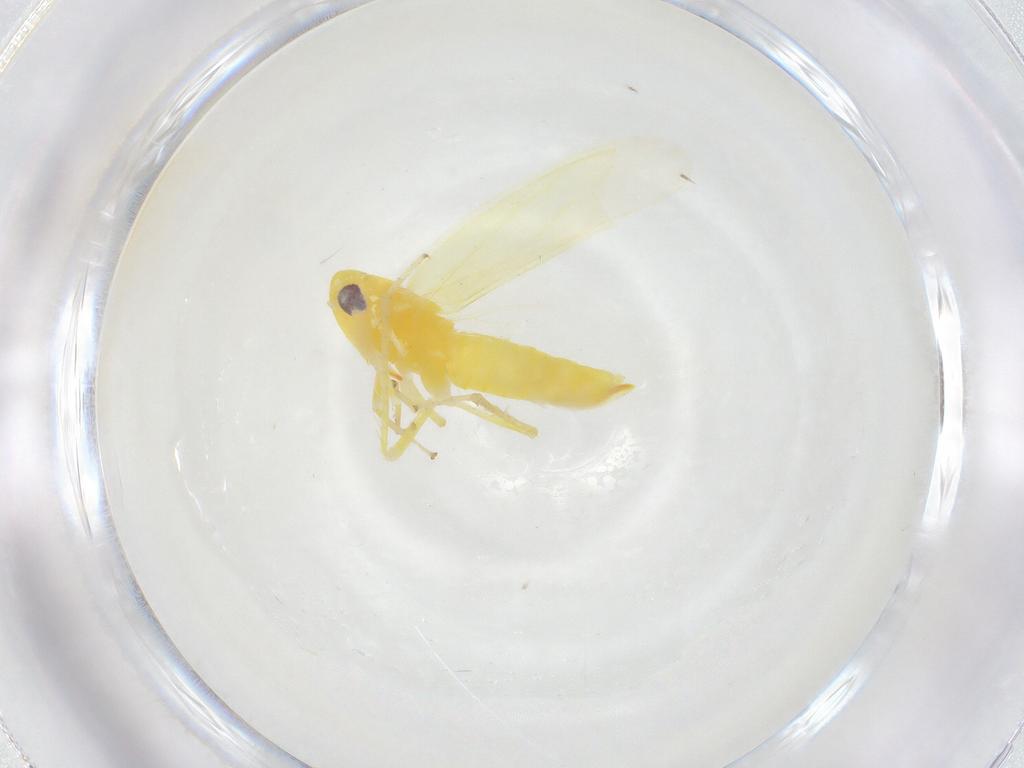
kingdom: Animalia
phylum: Arthropoda
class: Insecta
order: Hemiptera
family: Cicadellidae
